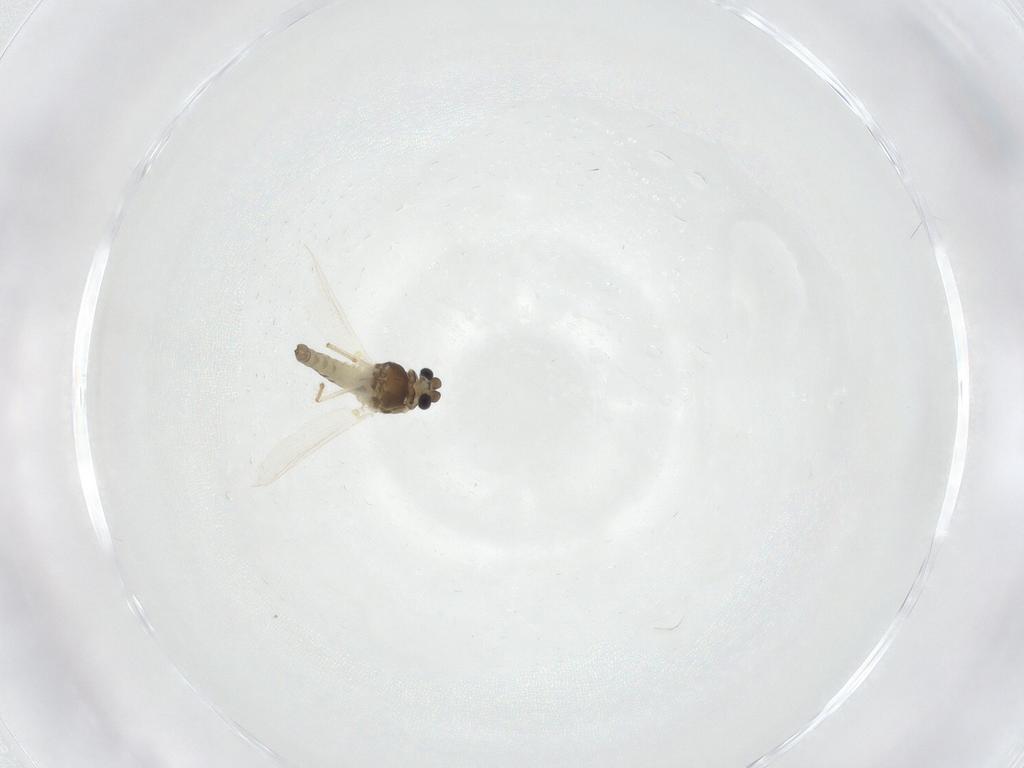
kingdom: Animalia
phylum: Arthropoda
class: Insecta
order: Diptera
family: Chironomidae
